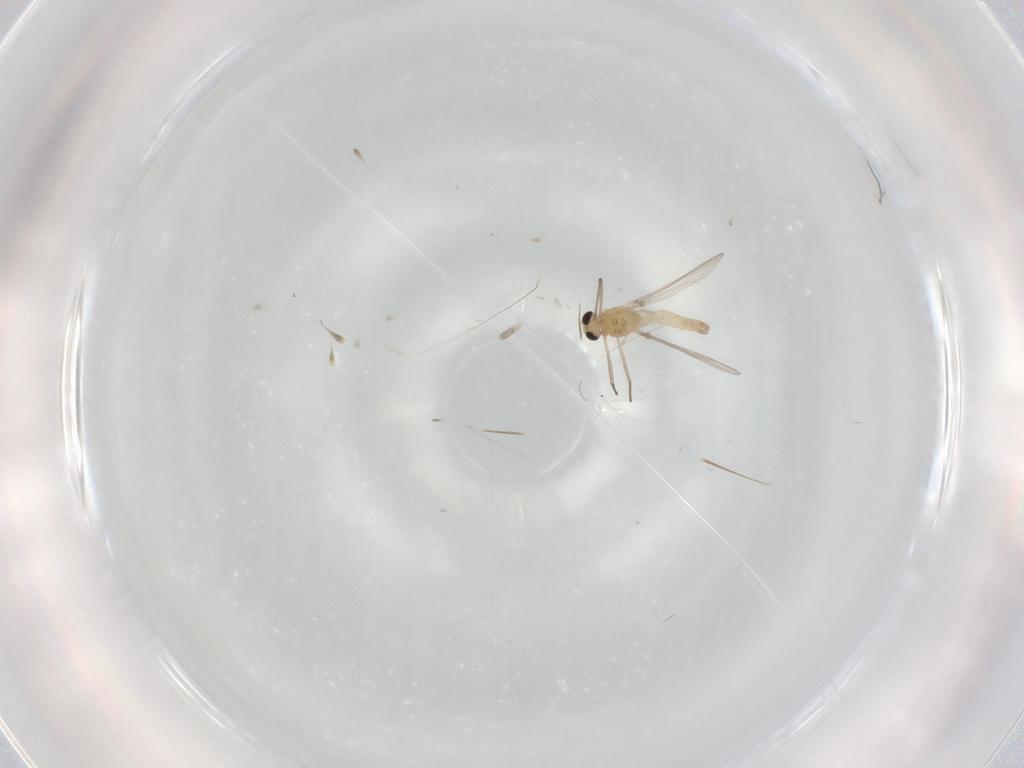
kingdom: Animalia
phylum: Arthropoda
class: Insecta
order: Diptera
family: Chironomidae
